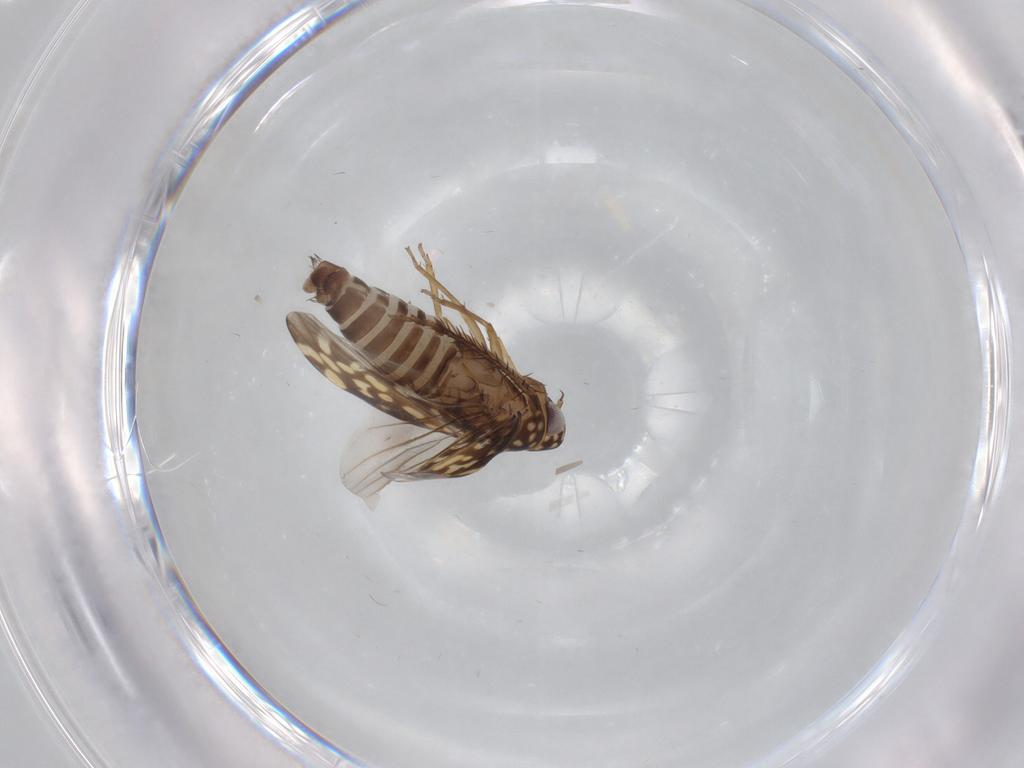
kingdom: Animalia
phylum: Arthropoda
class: Insecta
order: Hemiptera
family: Cicadellidae
